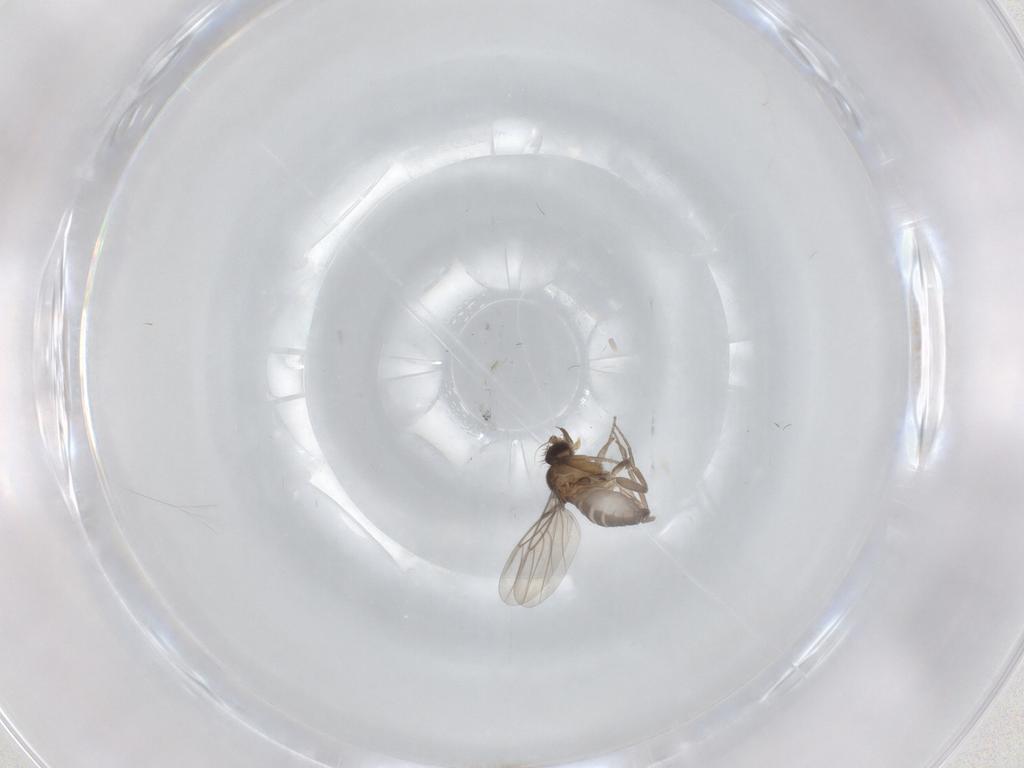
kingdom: Animalia
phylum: Arthropoda
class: Insecta
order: Diptera
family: Phoridae
